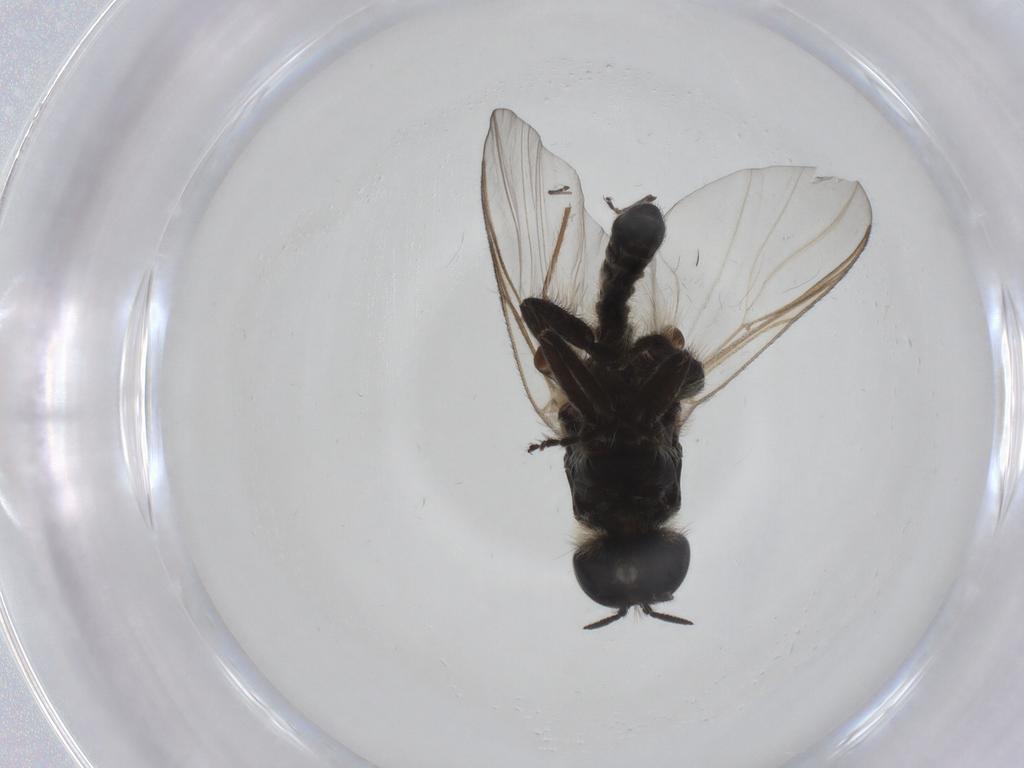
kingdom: Animalia
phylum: Arthropoda
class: Insecta
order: Diptera
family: Simuliidae
